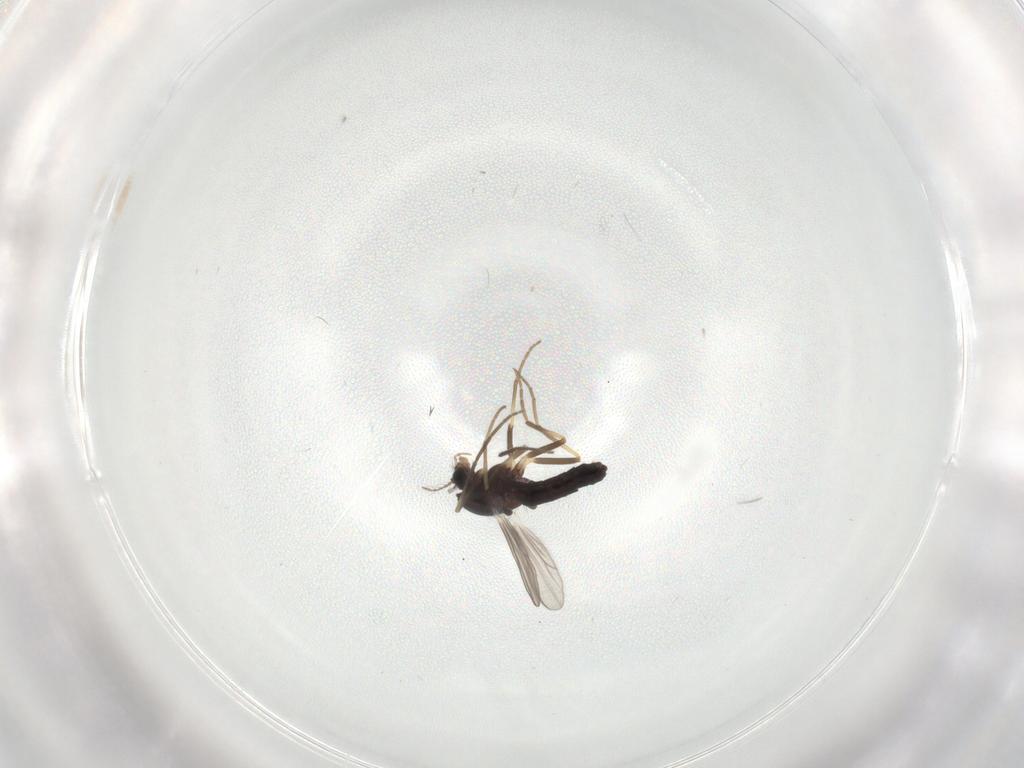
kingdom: Animalia
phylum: Arthropoda
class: Insecta
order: Diptera
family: Chironomidae
